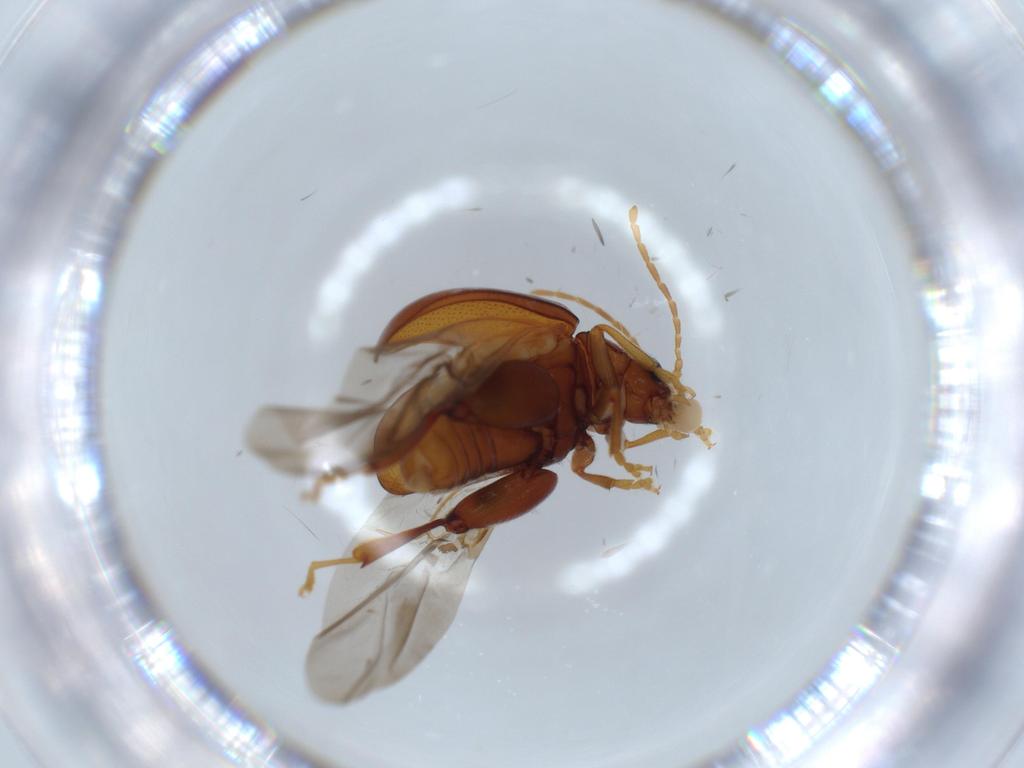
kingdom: Animalia
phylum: Arthropoda
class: Insecta
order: Coleoptera
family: Chrysomelidae
